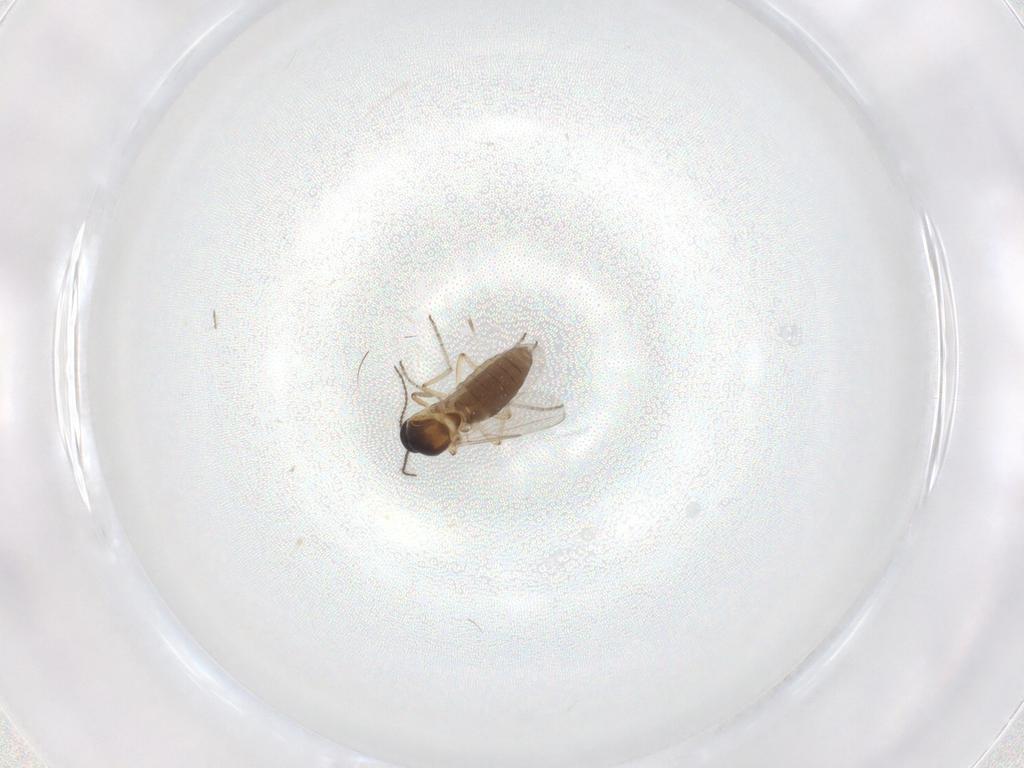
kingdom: Animalia
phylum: Arthropoda
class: Insecta
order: Diptera
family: Ceratopogonidae
